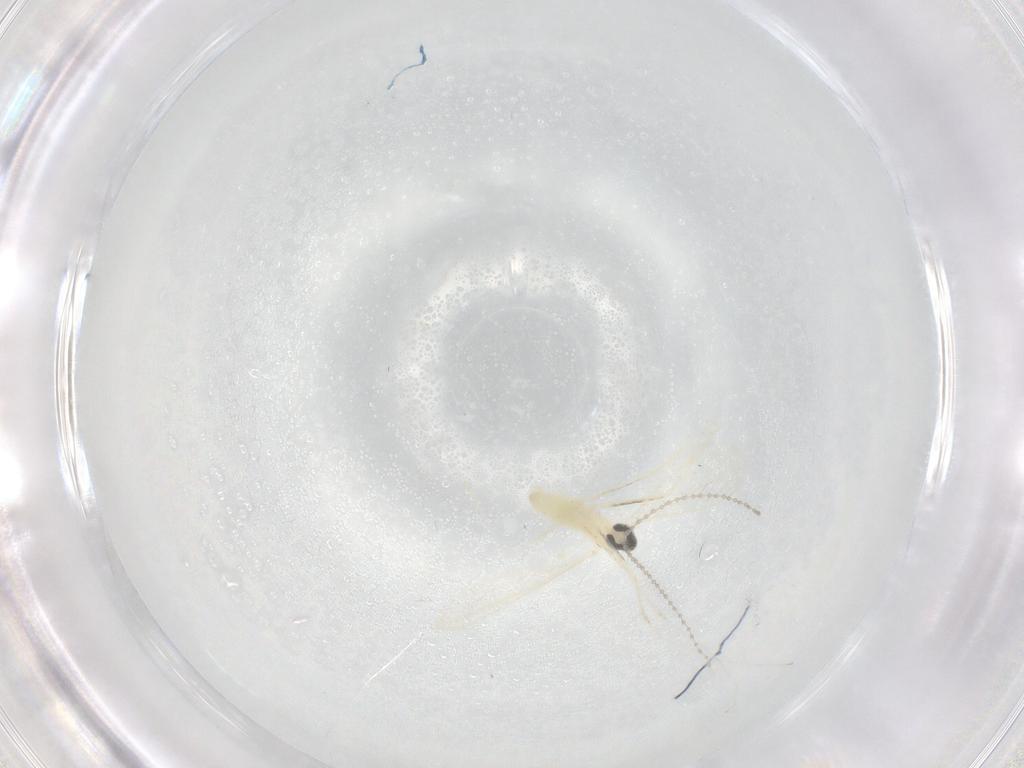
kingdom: Animalia
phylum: Arthropoda
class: Insecta
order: Diptera
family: Cecidomyiidae
